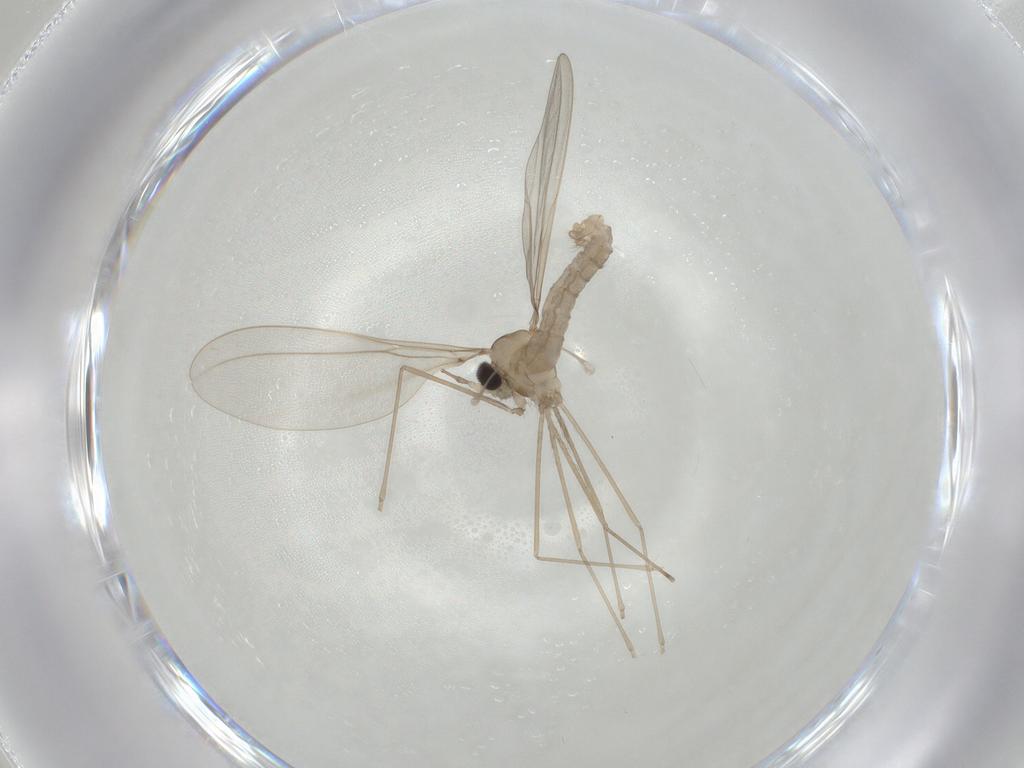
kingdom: Animalia
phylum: Arthropoda
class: Insecta
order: Diptera
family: Cecidomyiidae
